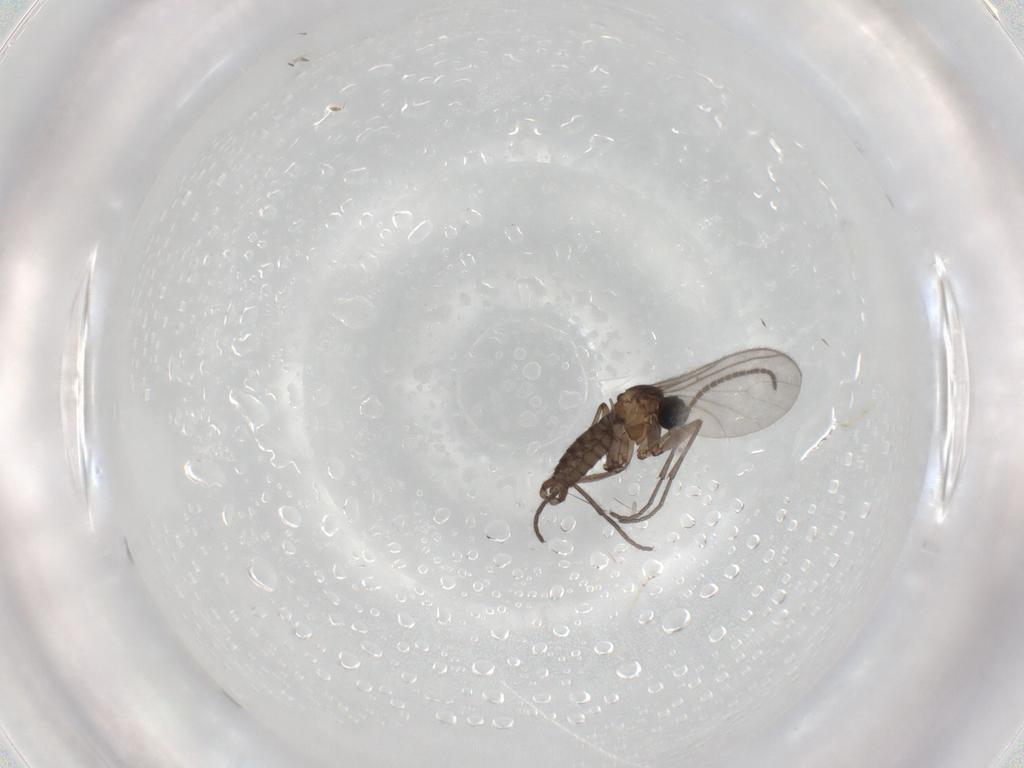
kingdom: Animalia
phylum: Arthropoda
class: Insecta
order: Diptera
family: Sciaridae
